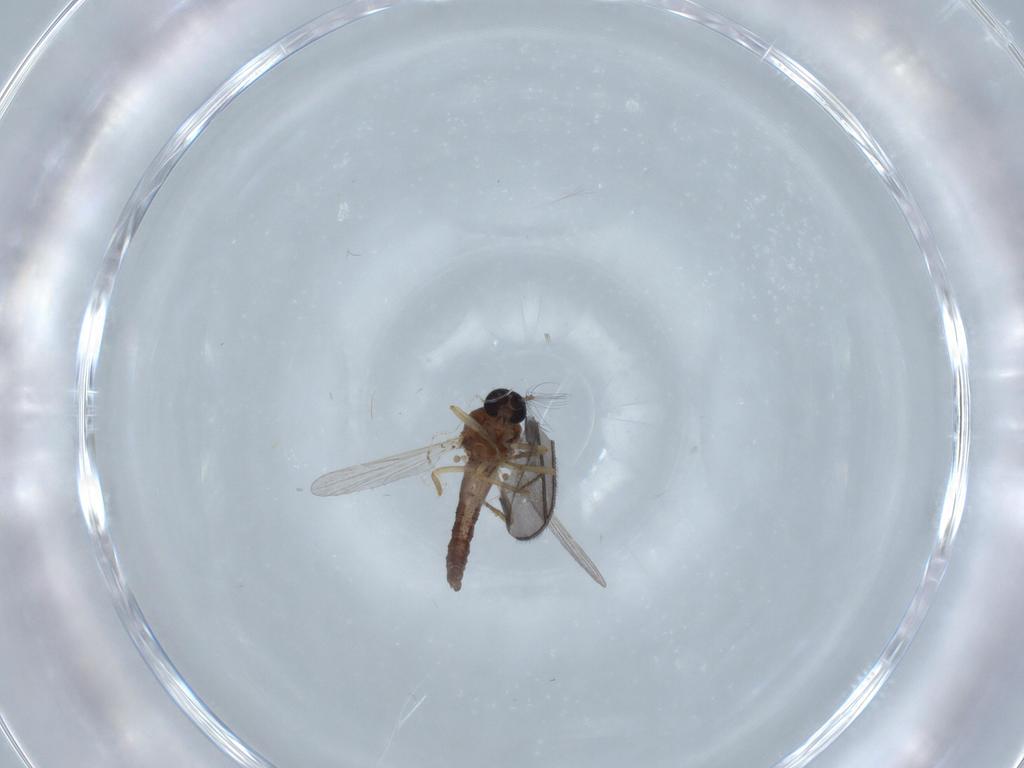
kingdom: Animalia
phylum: Arthropoda
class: Insecta
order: Diptera
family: Ceratopogonidae
